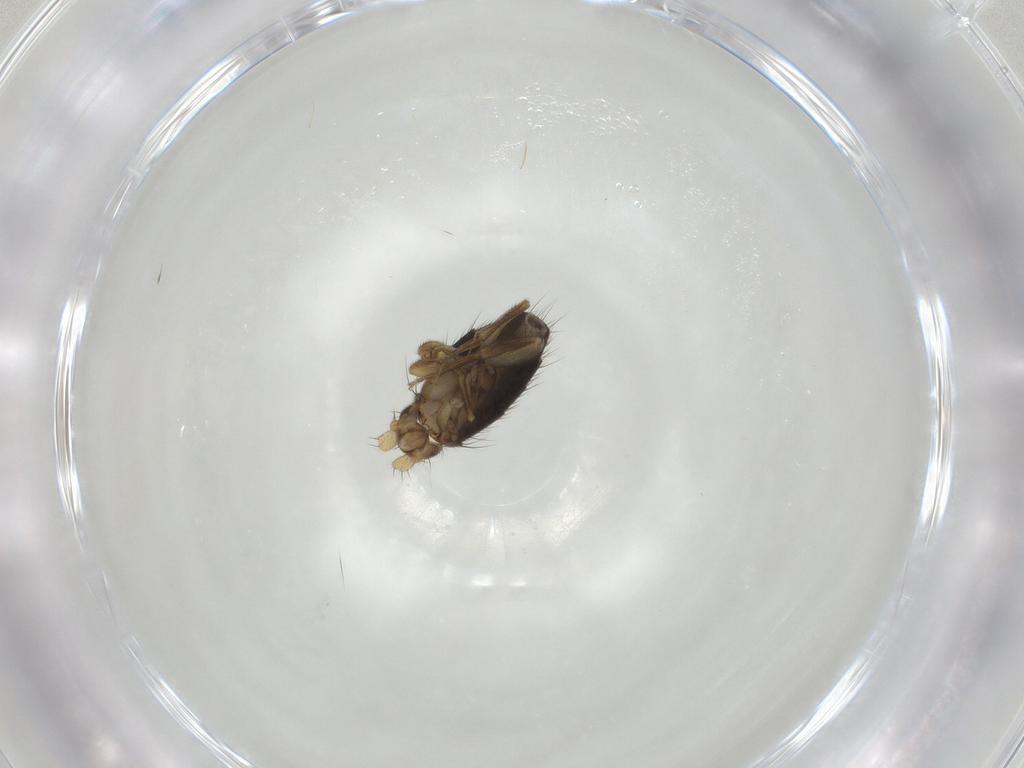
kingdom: Animalia
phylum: Arthropoda
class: Insecta
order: Diptera
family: Phoridae
